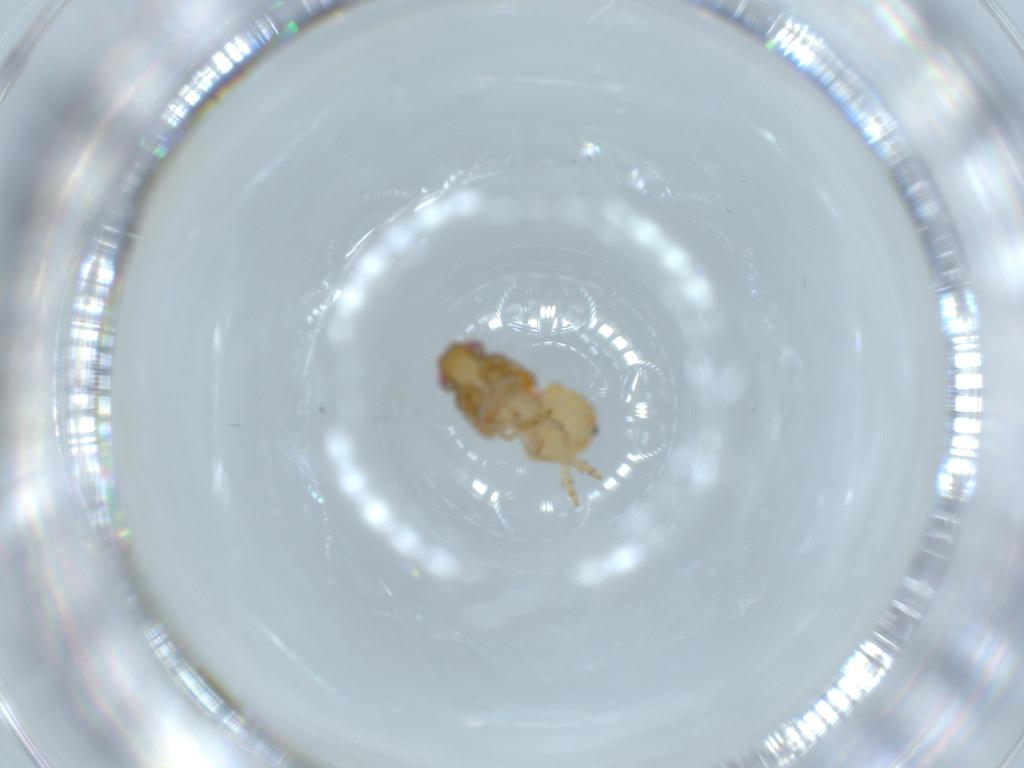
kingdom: Animalia
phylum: Arthropoda
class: Insecta
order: Hemiptera
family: Issidae
